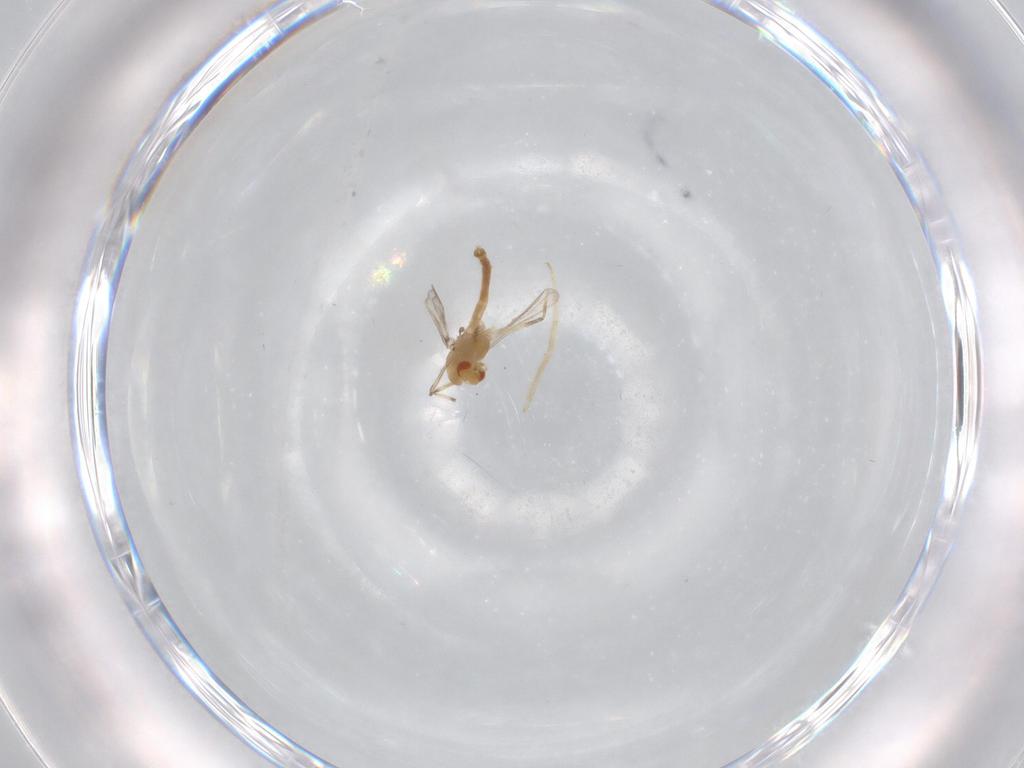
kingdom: Animalia
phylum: Arthropoda
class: Insecta
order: Diptera
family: Chironomidae
